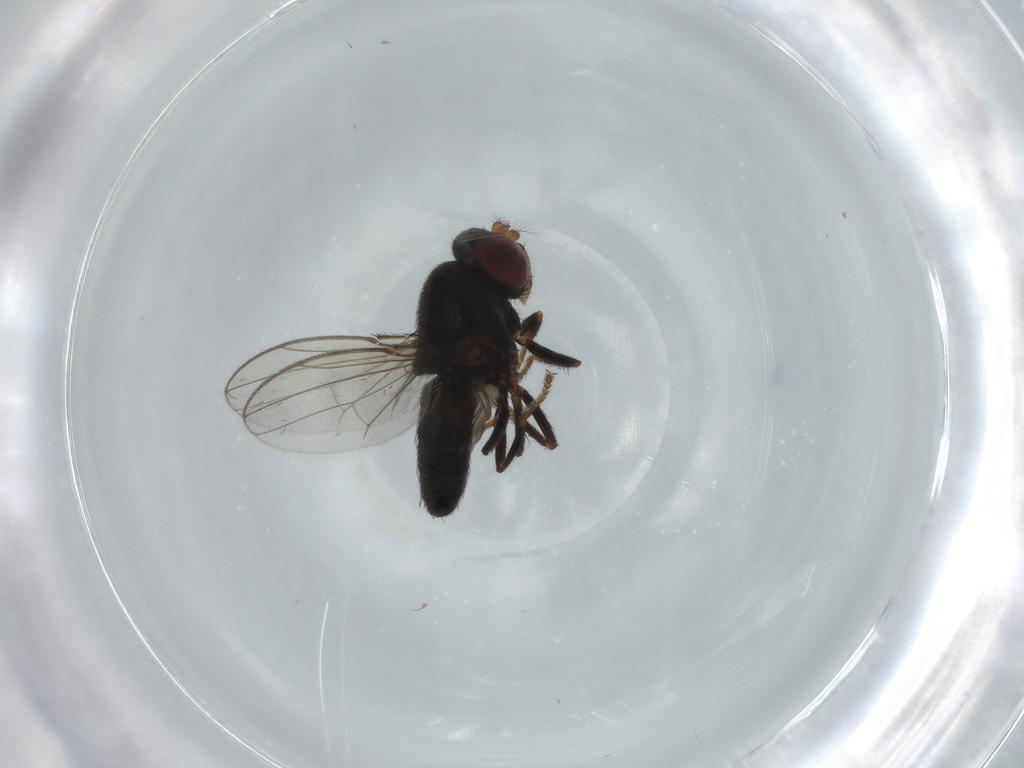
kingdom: Animalia
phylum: Arthropoda
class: Insecta
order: Diptera
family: Ephydridae
